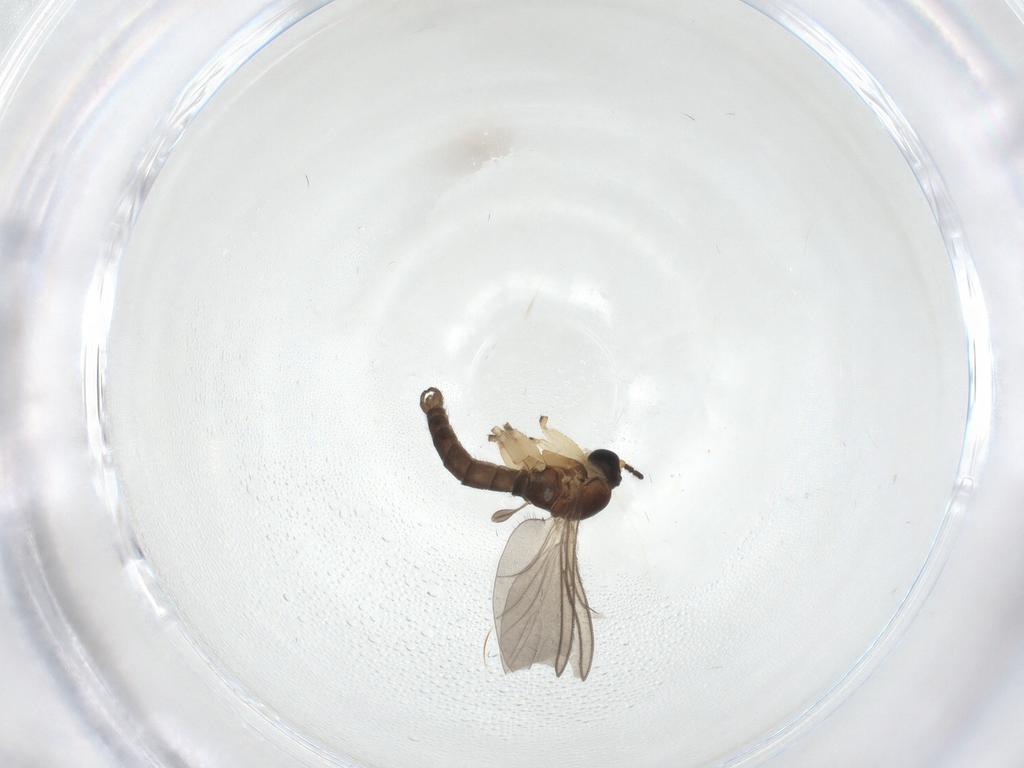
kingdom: Animalia
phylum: Arthropoda
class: Insecta
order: Diptera
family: Sciaridae
